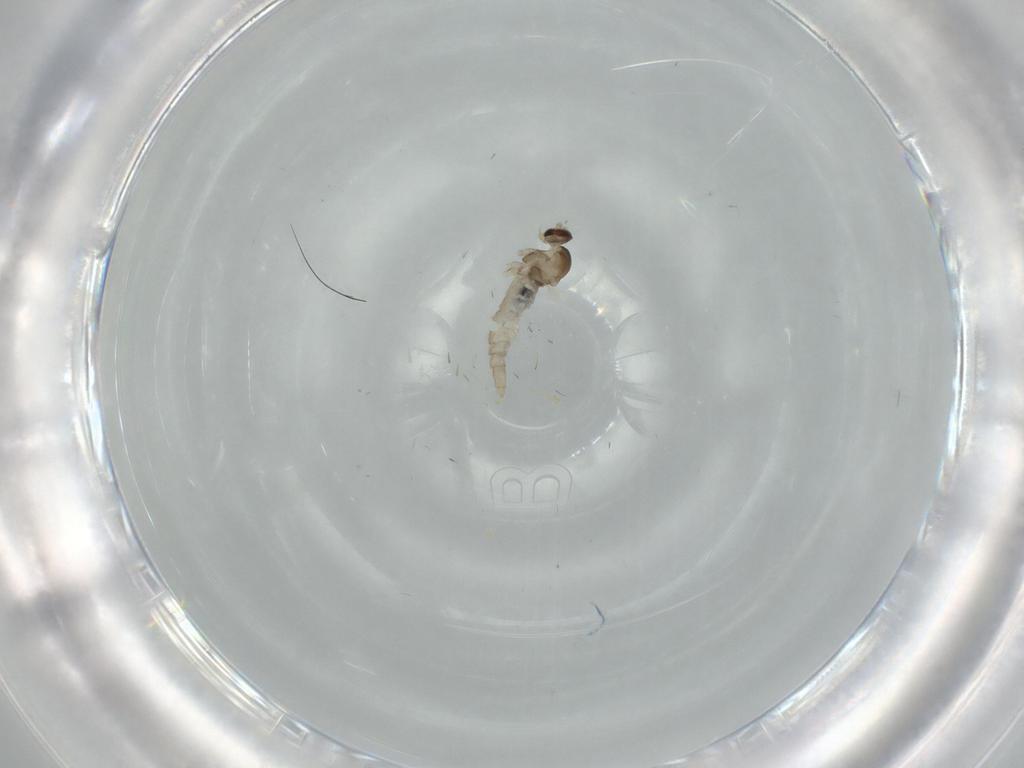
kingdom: Animalia
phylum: Arthropoda
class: Insecta
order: Diptera
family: Cecidomyiidae
